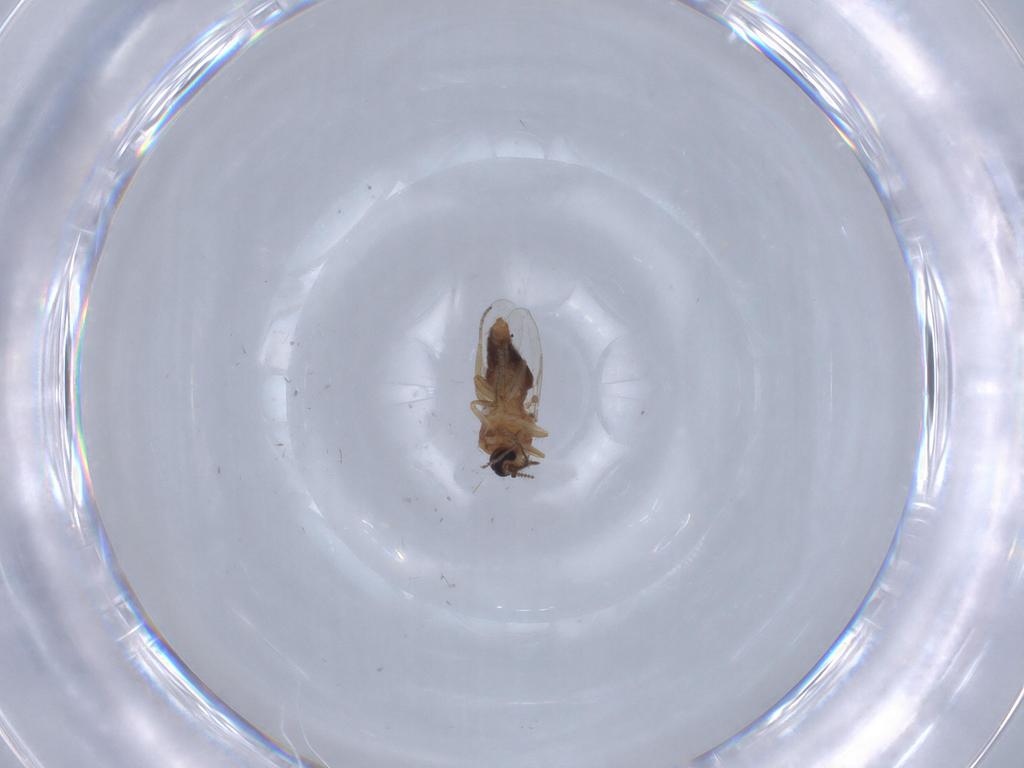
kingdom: Animalia
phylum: Arthropoda
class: Insecta
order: Diptera
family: Ceratopogonidae
